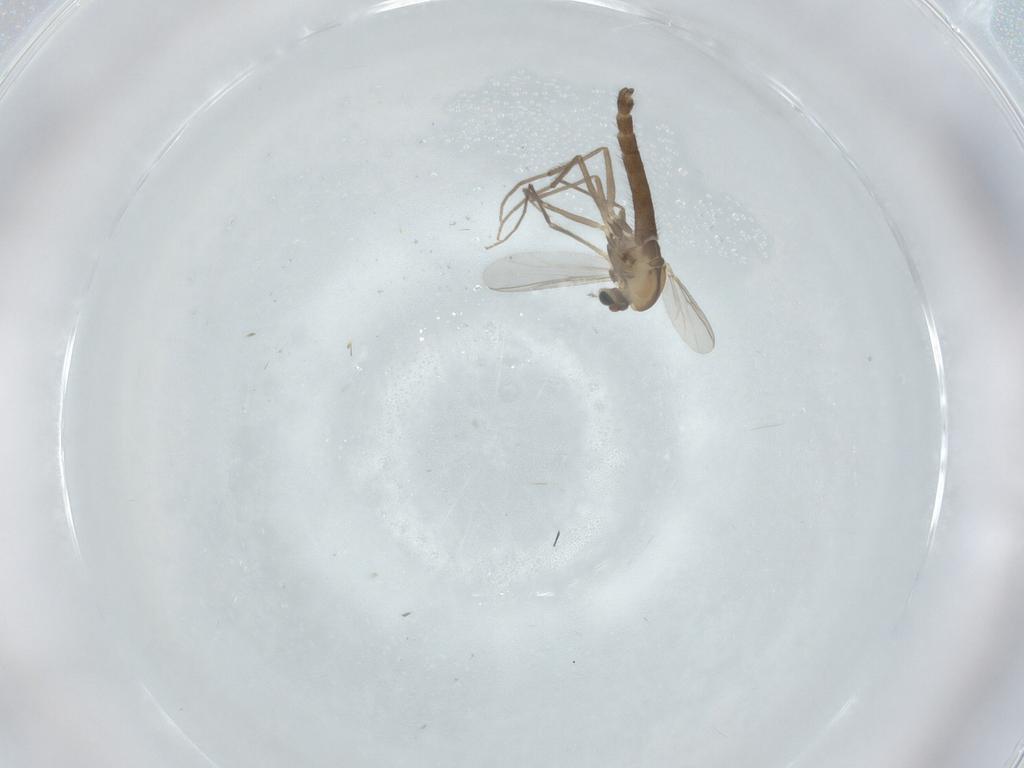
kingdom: Animalia
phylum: Arthropoda
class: Insecta
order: Diptera
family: Chironomidae
